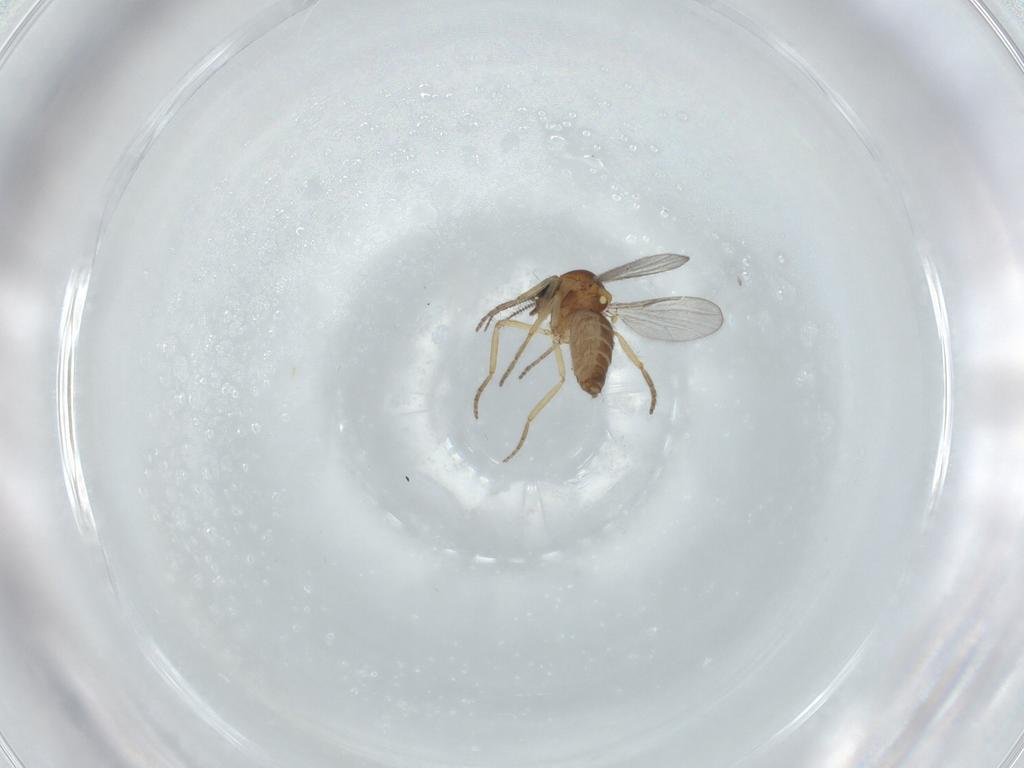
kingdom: Animalia
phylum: Arthropoda
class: Insecta
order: Diptera
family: Ceratopogonidae
